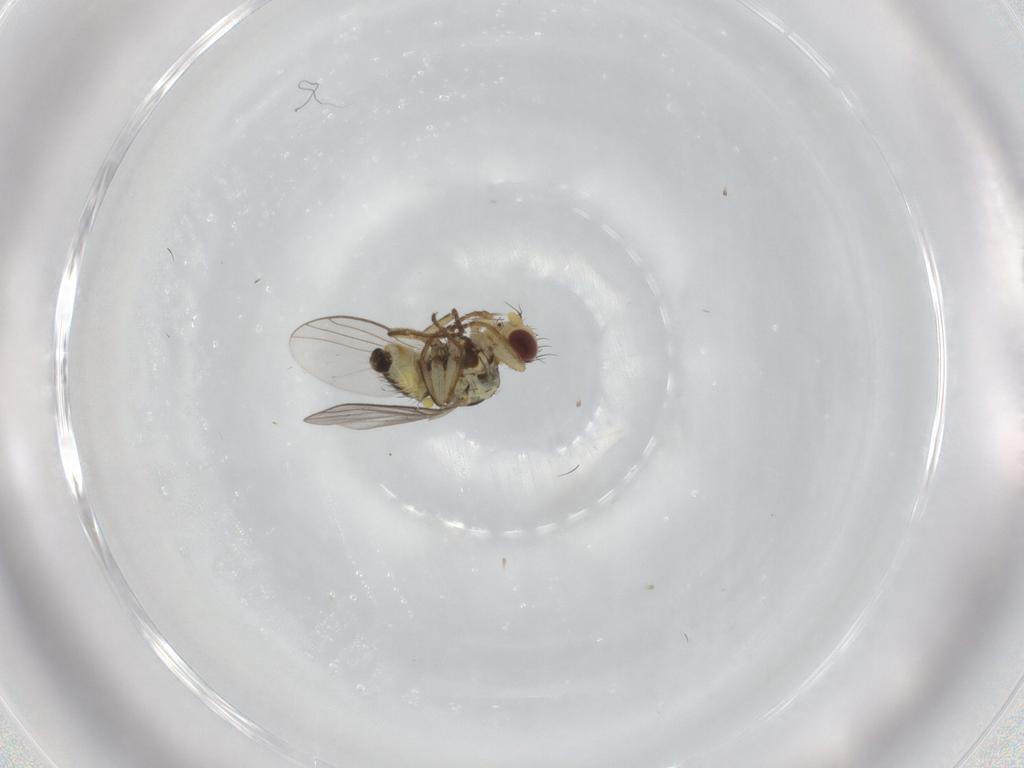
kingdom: Animalia
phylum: Arthropoda
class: Insecta
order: Diptera
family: Agromyzidae
